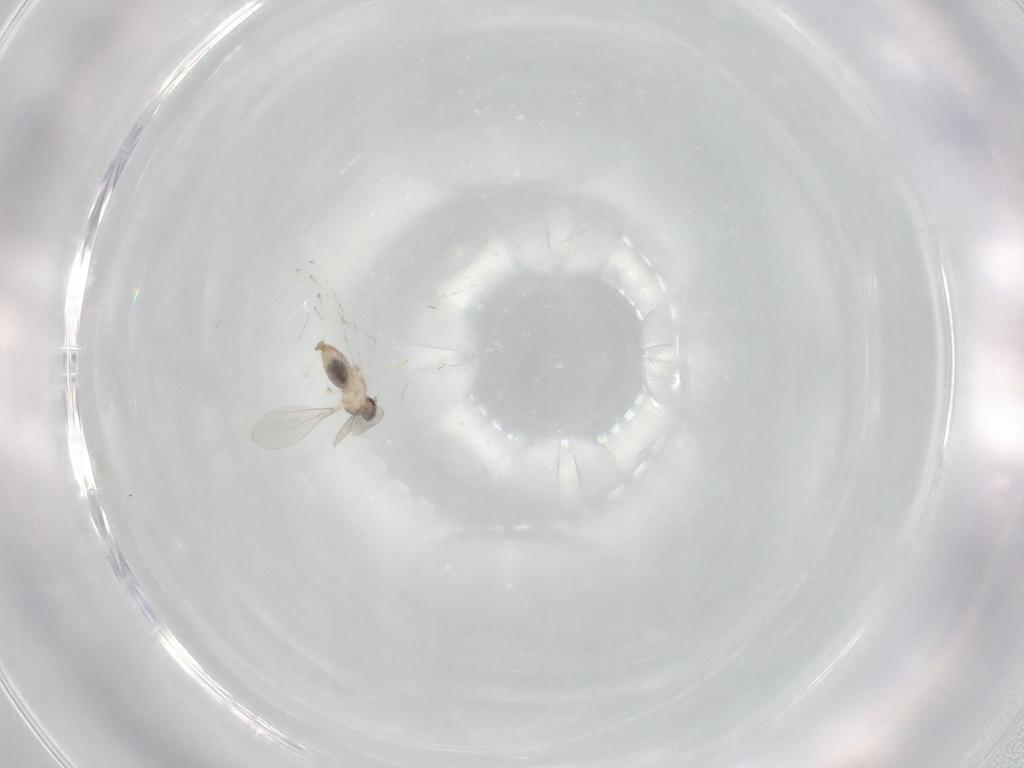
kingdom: Animalia
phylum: Arthropoda
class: Insecta
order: Diptera
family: Cecidomyiidae
